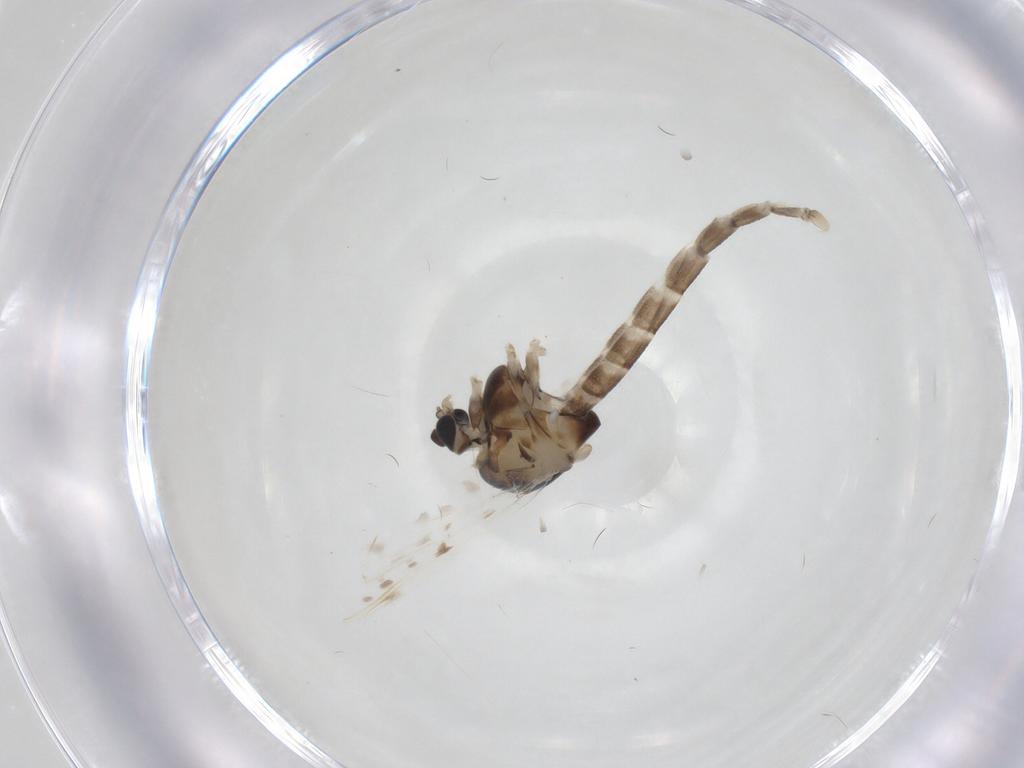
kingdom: Animalia
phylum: Arthropoda
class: Insecta
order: Diptera
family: Chironomidae
